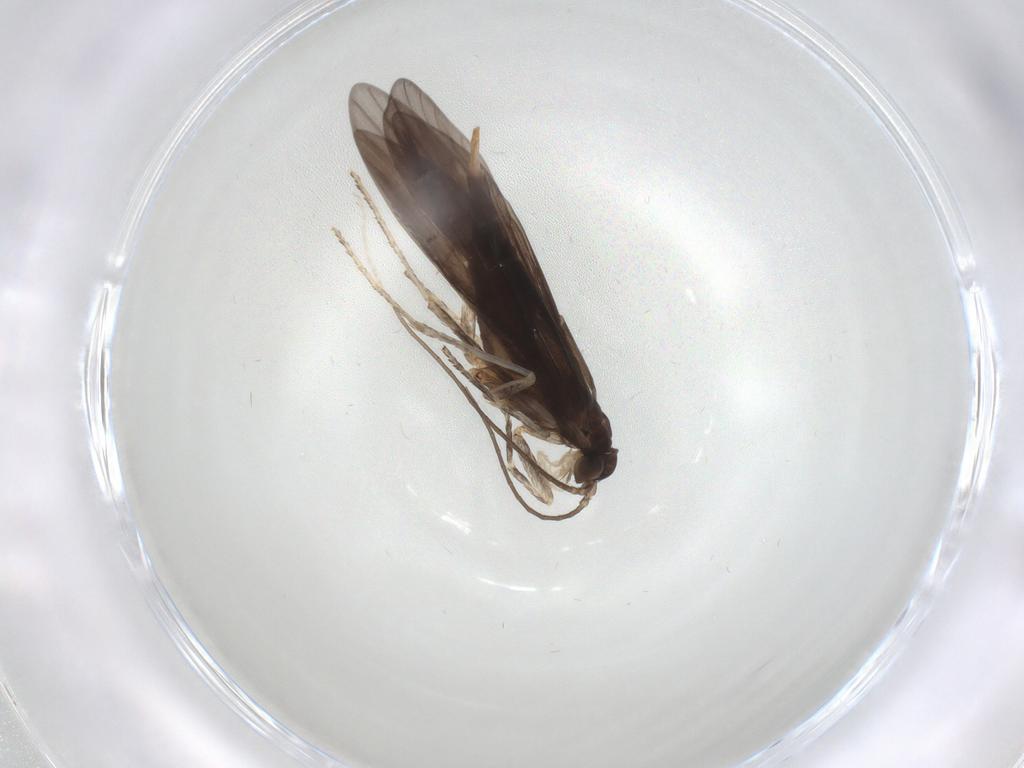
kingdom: Animalia
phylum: Arthropoda
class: Insecta
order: Trichoptera
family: Xiphocentronidae
